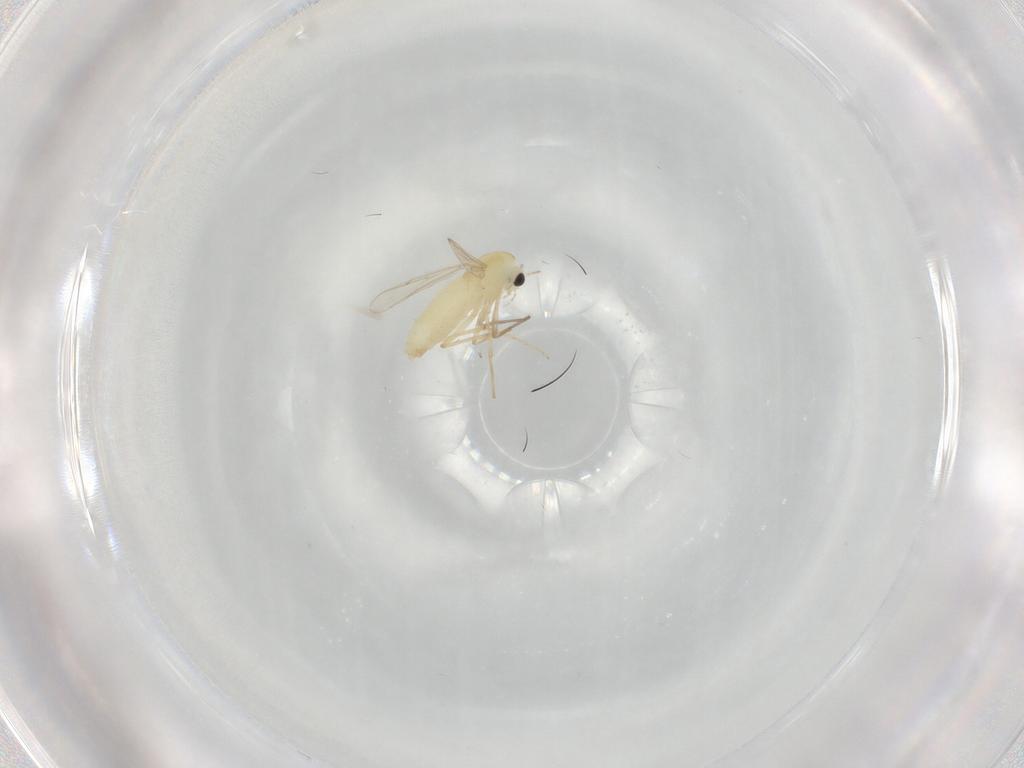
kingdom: Animalia
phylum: Arthropoda
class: Insecta
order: Diptera
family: Chironomidae
